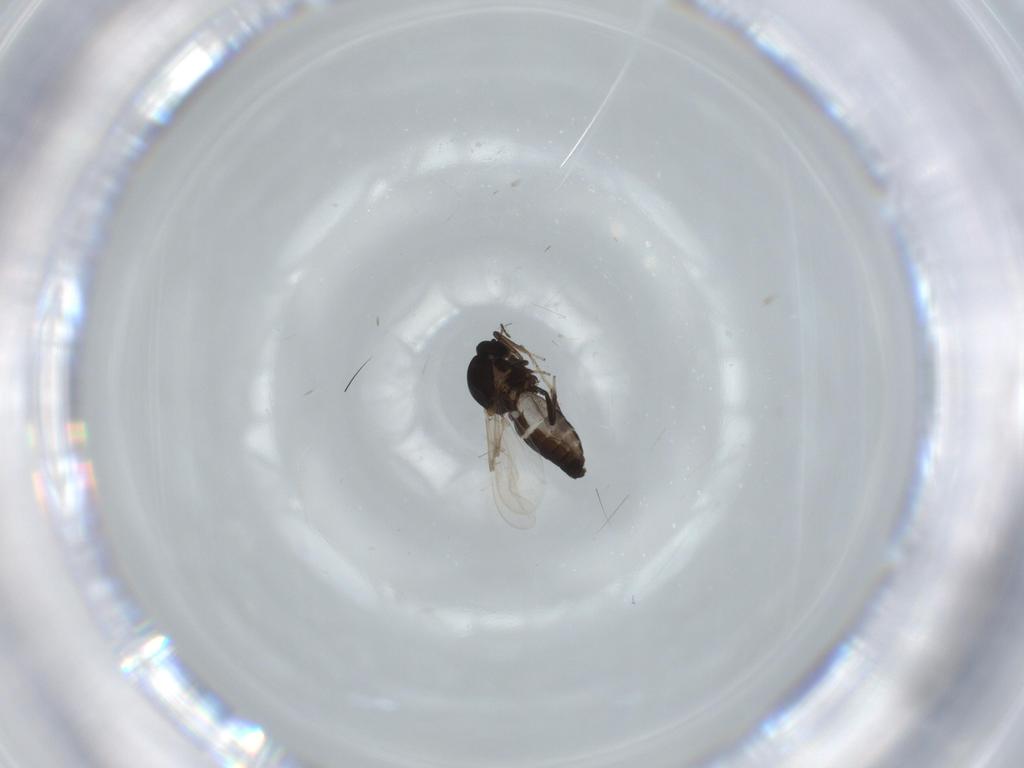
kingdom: Animalia
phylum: Arthropoda
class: Insecta
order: Diptera
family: Ceratopogonidae
